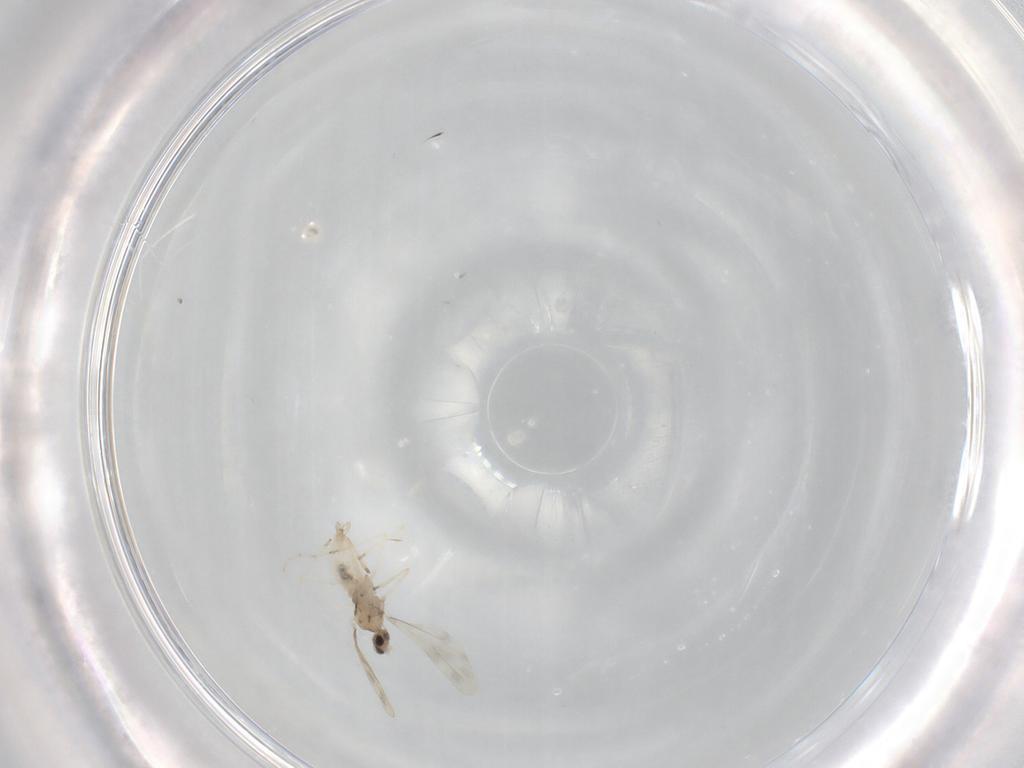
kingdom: Animalia
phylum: Arthropoda
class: Insecta
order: Diptera
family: Cecidomyiidae
